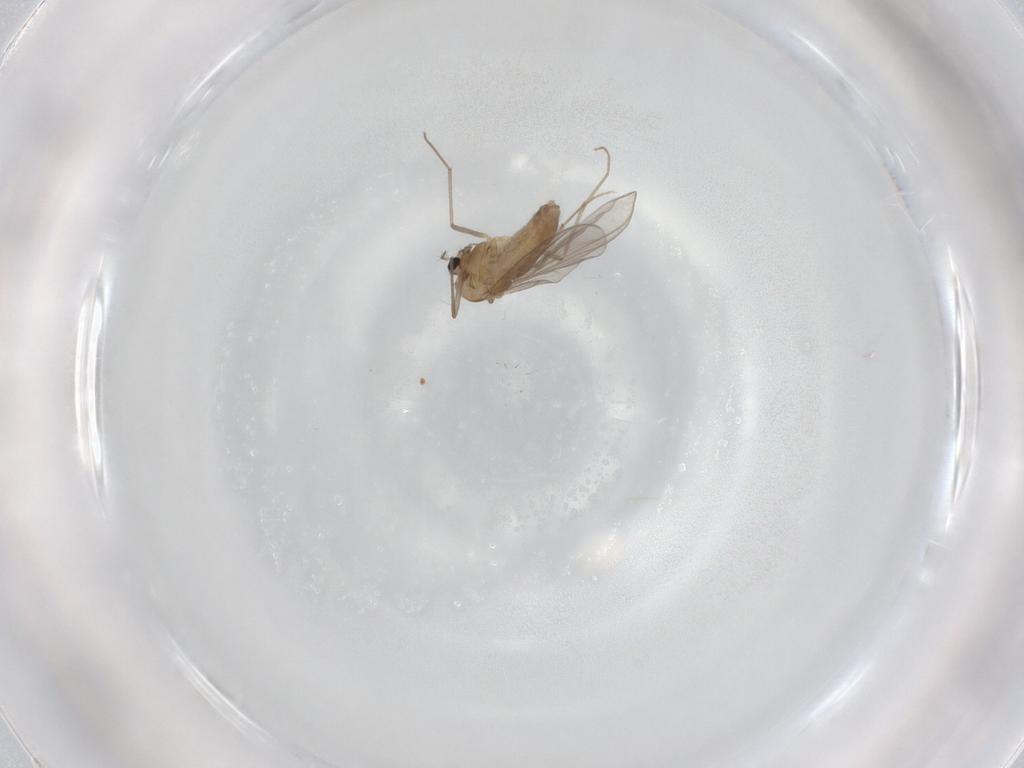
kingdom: Animalia
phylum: Arthropoda
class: Insecta
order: Diptera
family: Chironomidae
